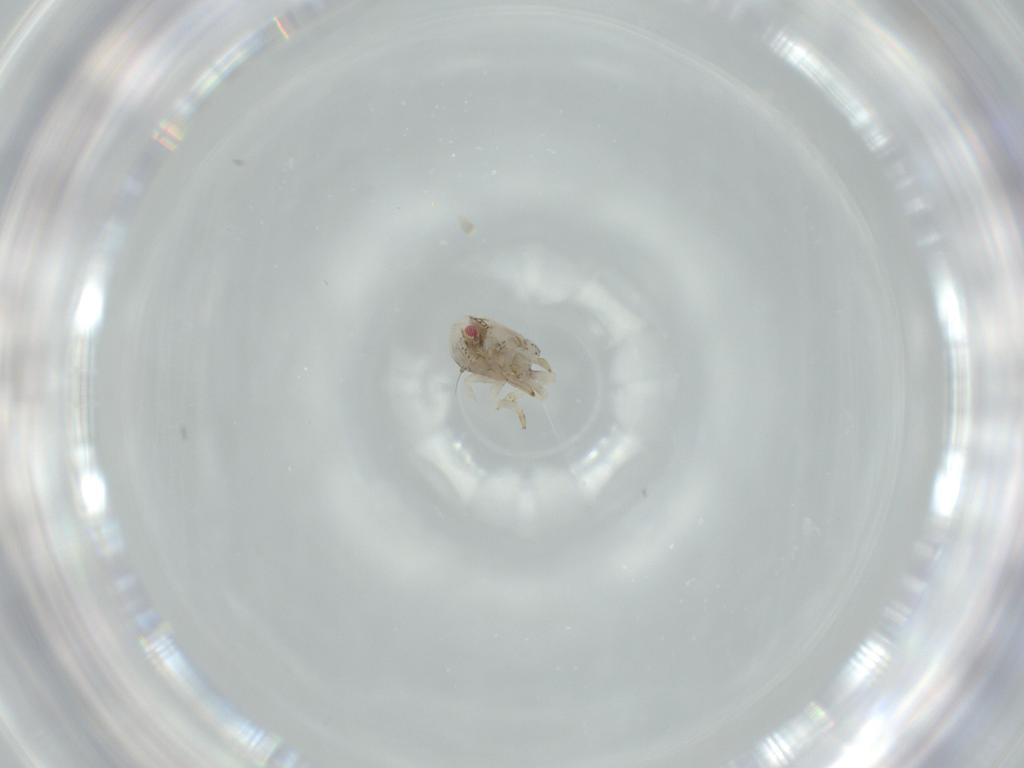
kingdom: Animalia
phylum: Arthropoda
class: Insecta
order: Hemiptera
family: Acanaloniidae
